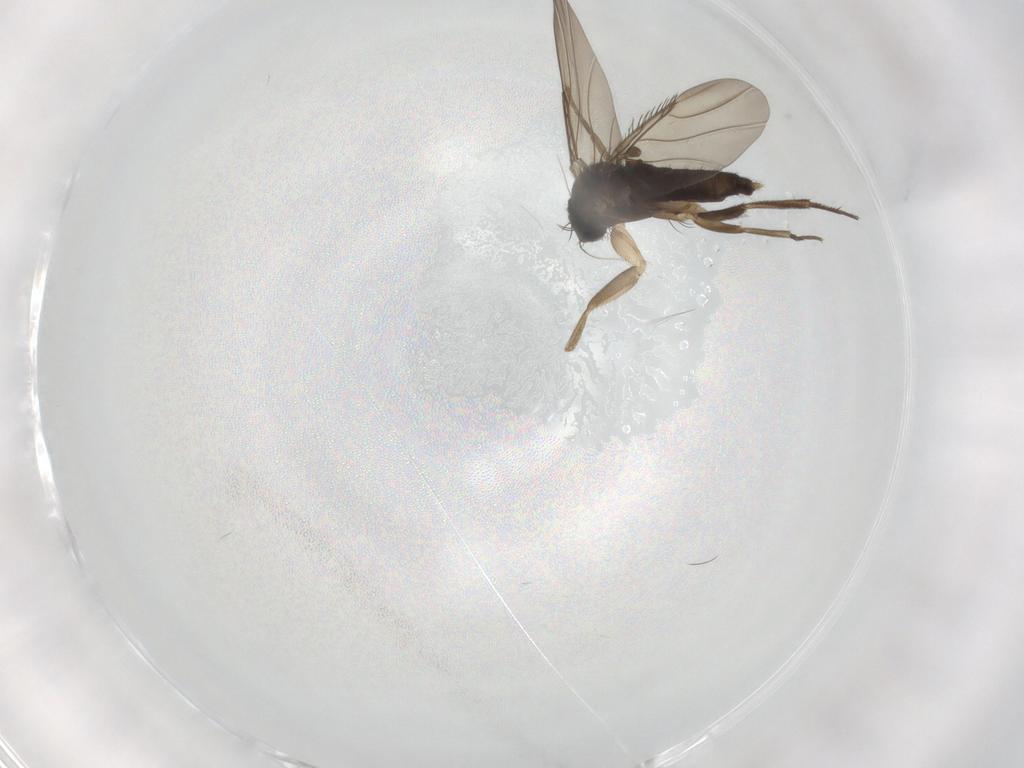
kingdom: Animalia
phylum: Arthropoda
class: Insecta
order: Diptera
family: Phoridae
